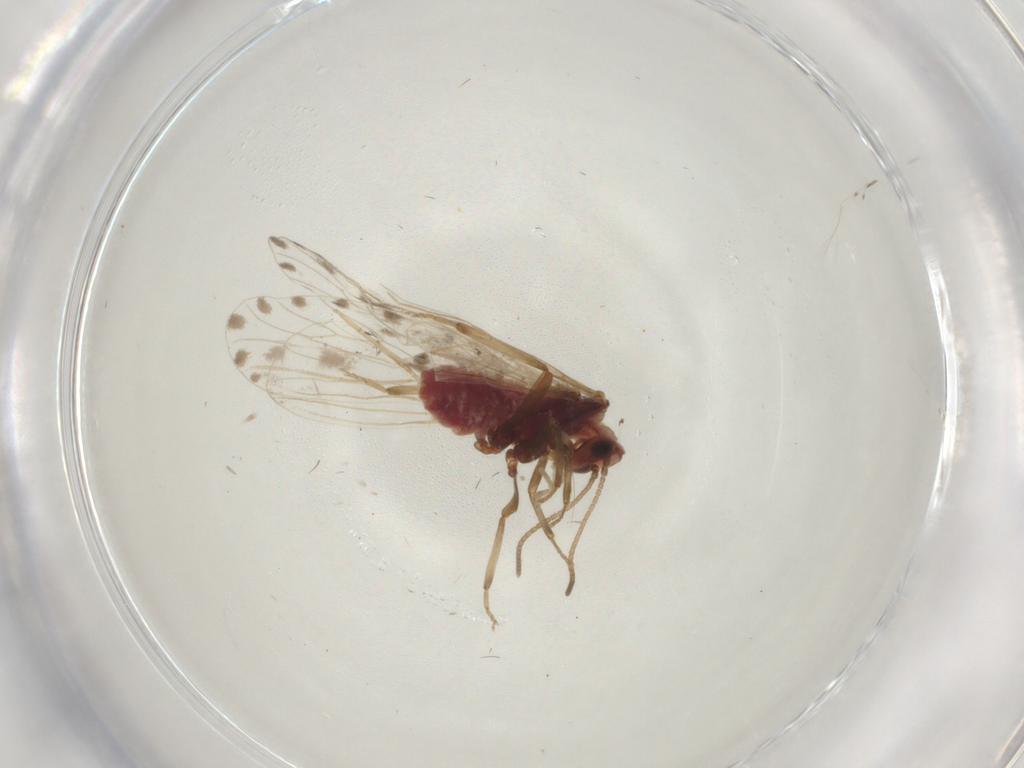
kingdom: Animalia
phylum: Arthropoda
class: Insecta
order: Neuroptera
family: Coniopterygidae
